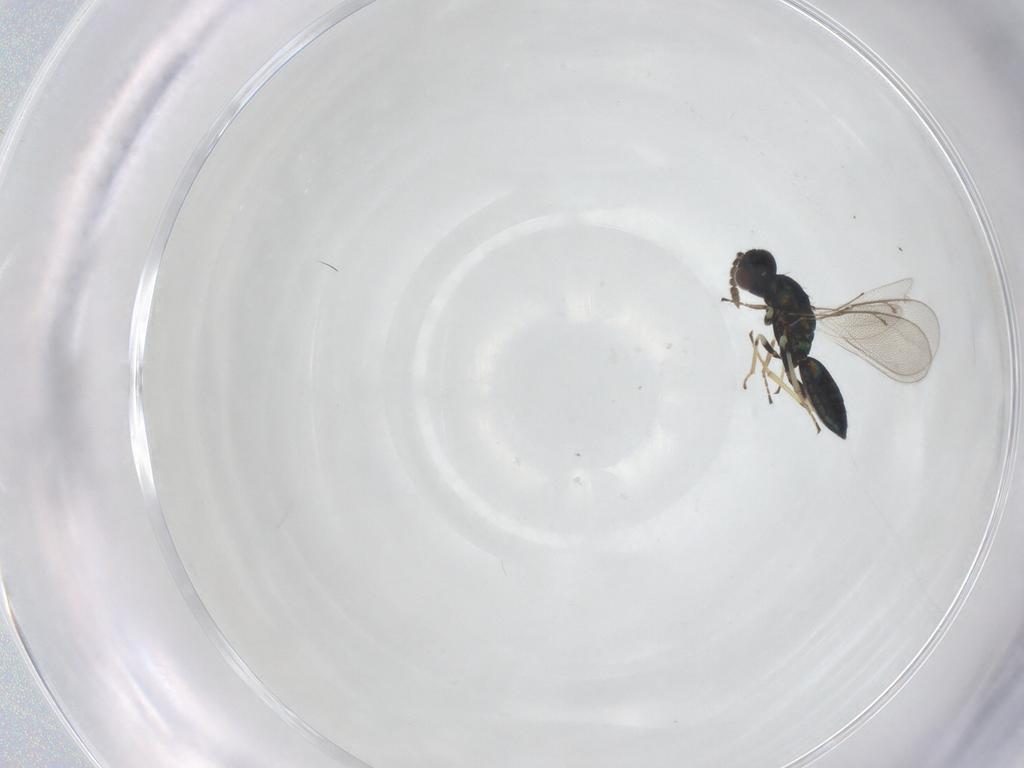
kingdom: Animalia
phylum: Arthropoda
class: Insecta
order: Hymenoptera
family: Eulophidae
